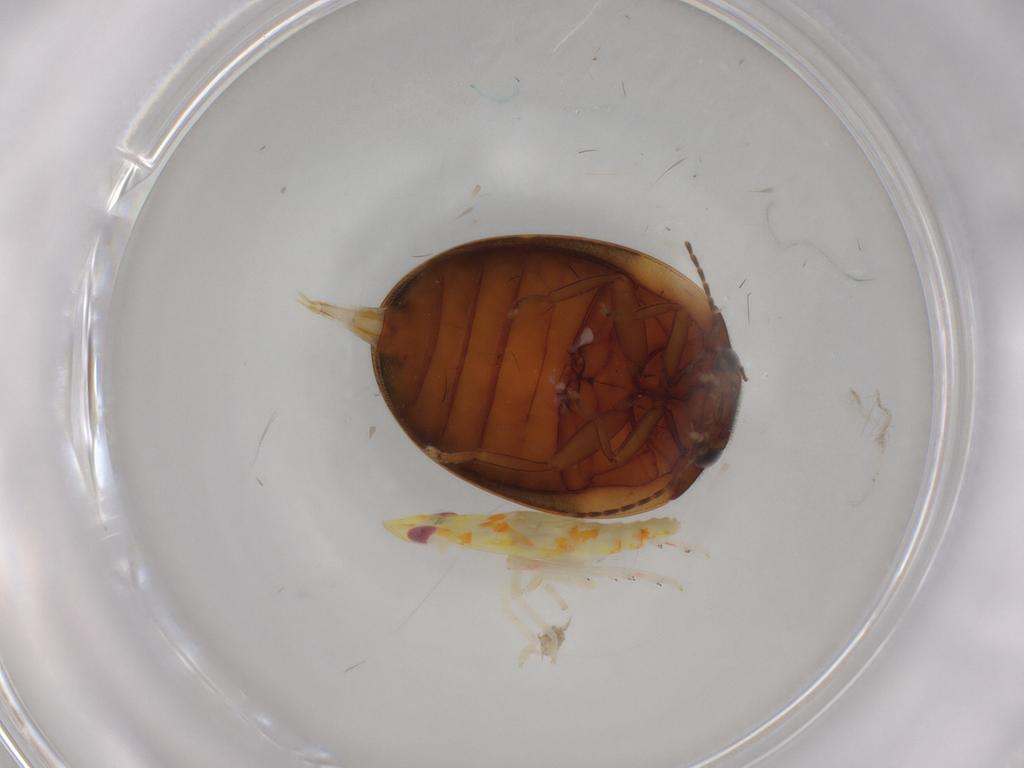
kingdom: Animalia
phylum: Arthropoda
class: Insecta
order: Coleoptera
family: Scirtidae
